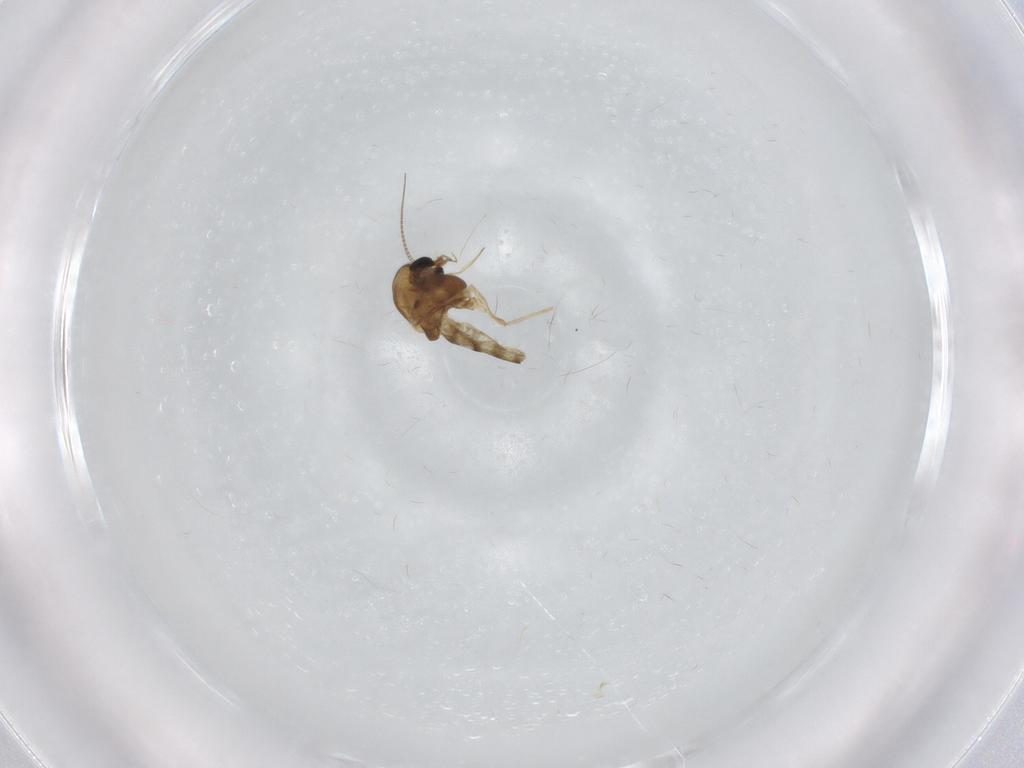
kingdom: Animalia
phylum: Arthropoda
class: Insecta
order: Diptera
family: Chironomidae
